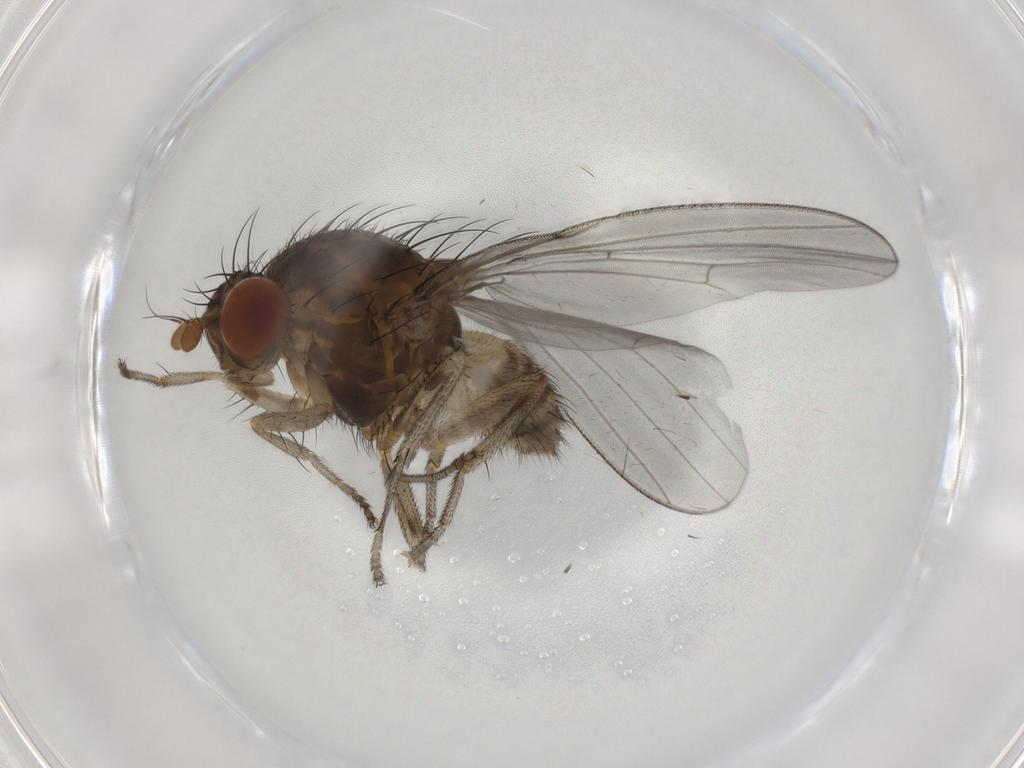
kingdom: Animalia
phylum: Arthropoda
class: Insecta
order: Diptera
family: Lauxaniidae
